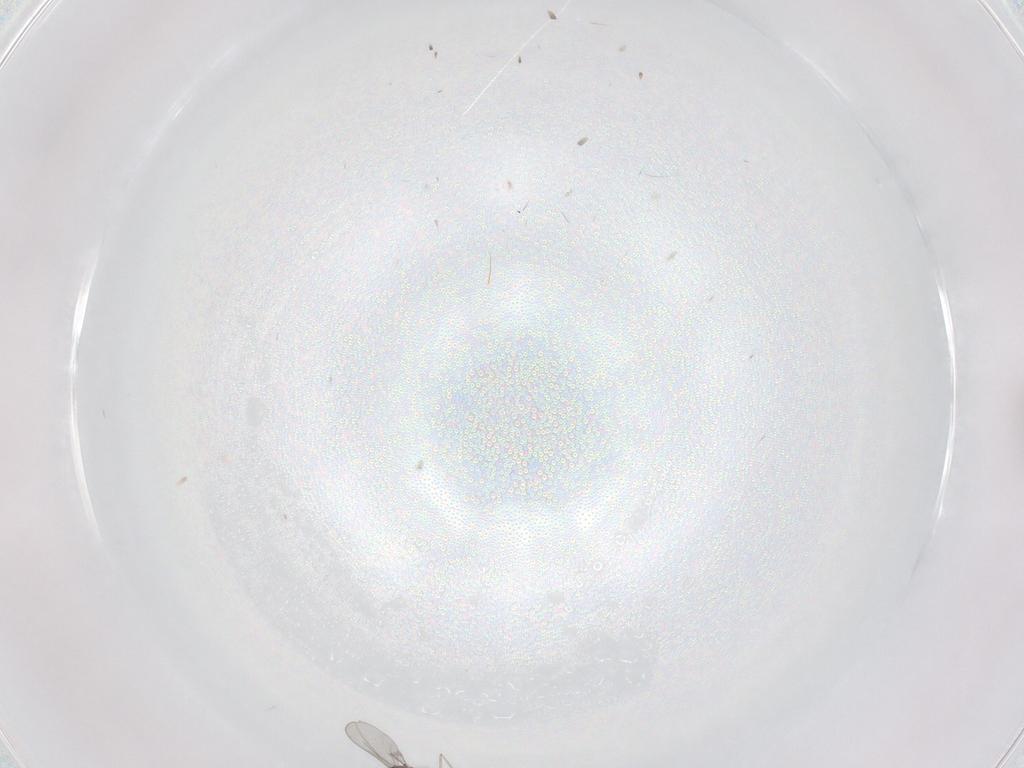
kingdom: Animalia
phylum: Arthropoda
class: Insecta
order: Diptera
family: Cecidomyiidae
